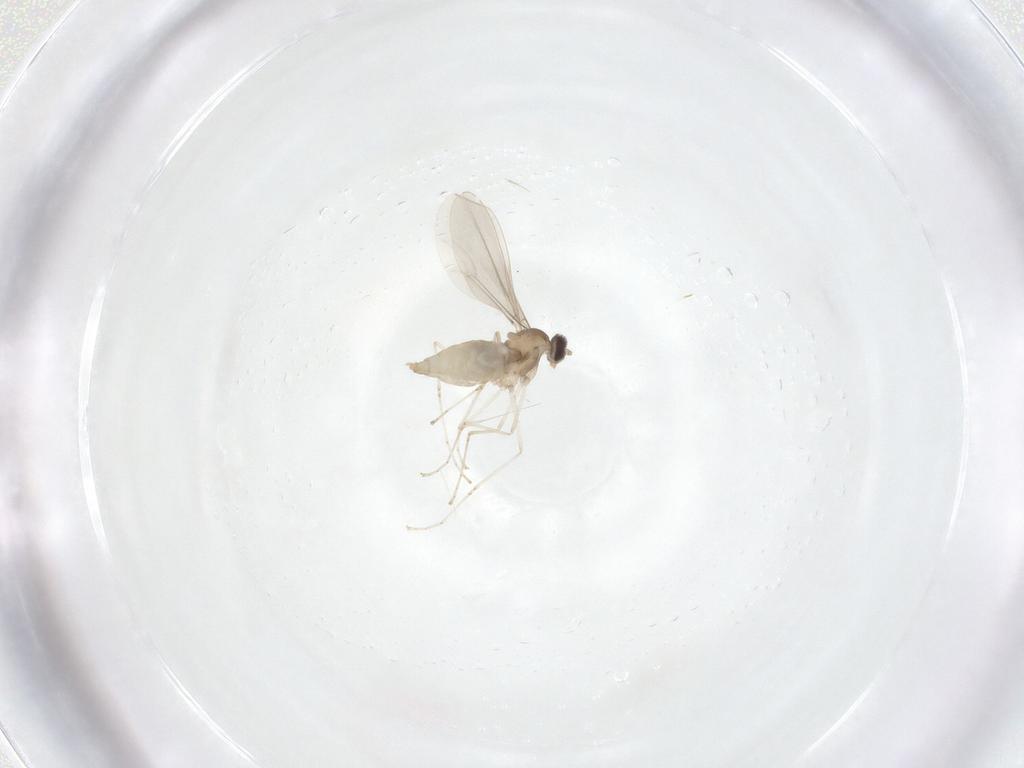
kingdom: Animalia
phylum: Arthropoda
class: Insecta
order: Diptera
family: Cecidomyiidae
